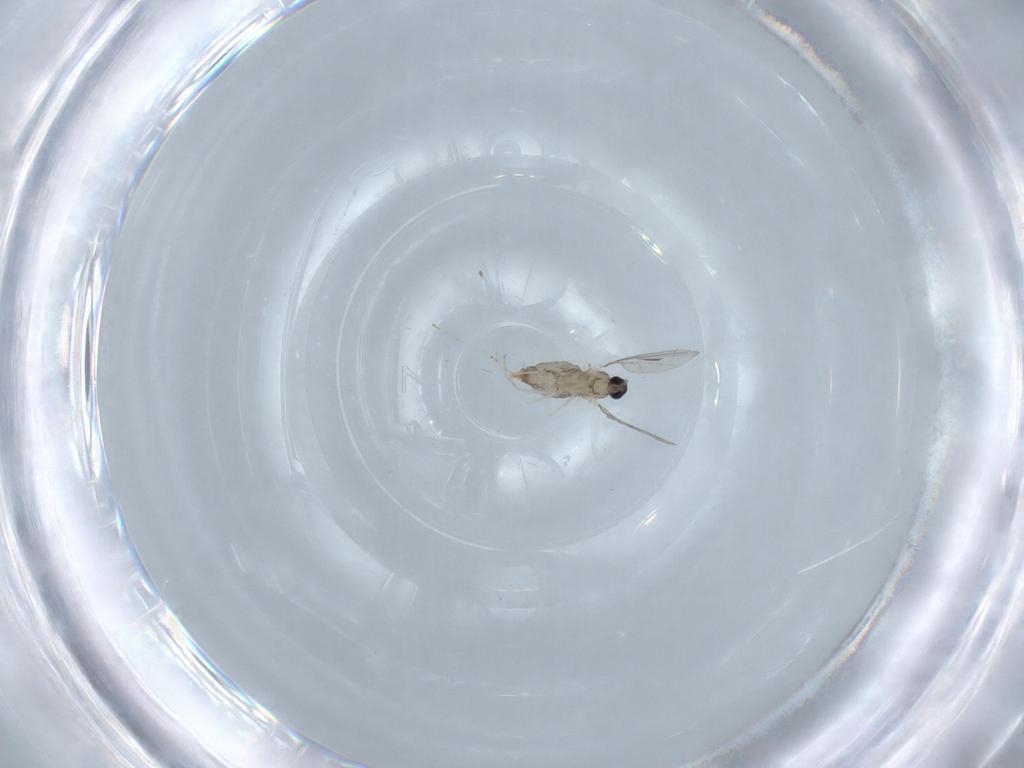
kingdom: Animalia
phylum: Arthropoda
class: Insecta
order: Diptera
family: Cecidomyiidae
